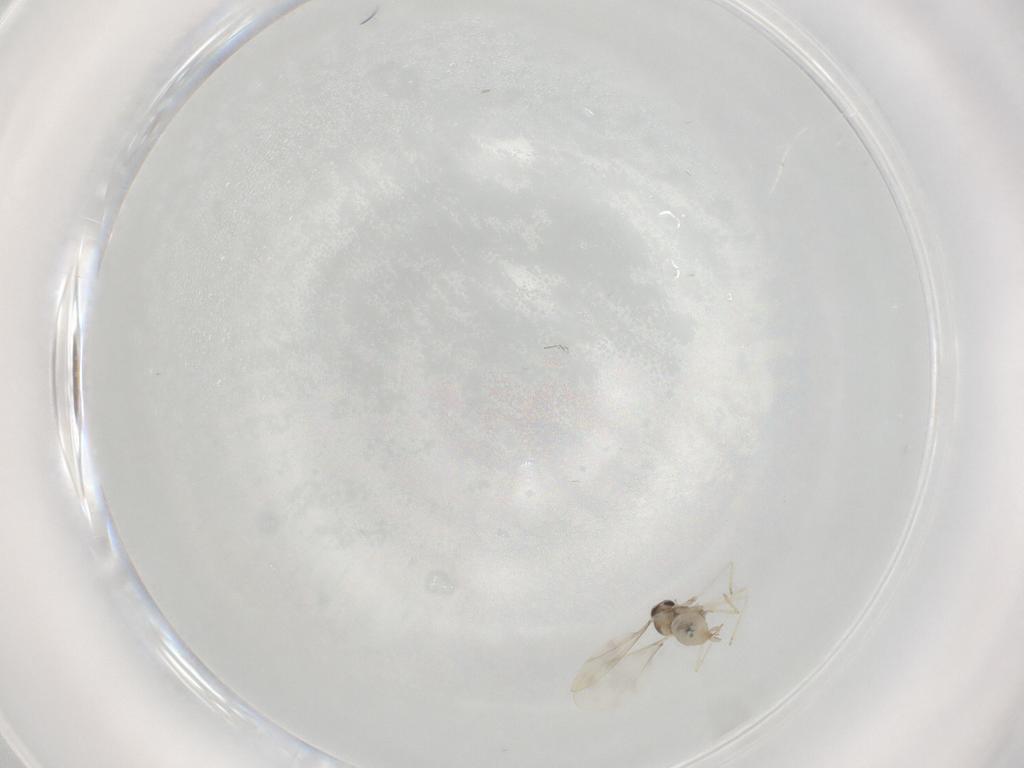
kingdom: Animalia
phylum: Arthropoda
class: Insecta
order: Diptera
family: Cecidomyiidae
